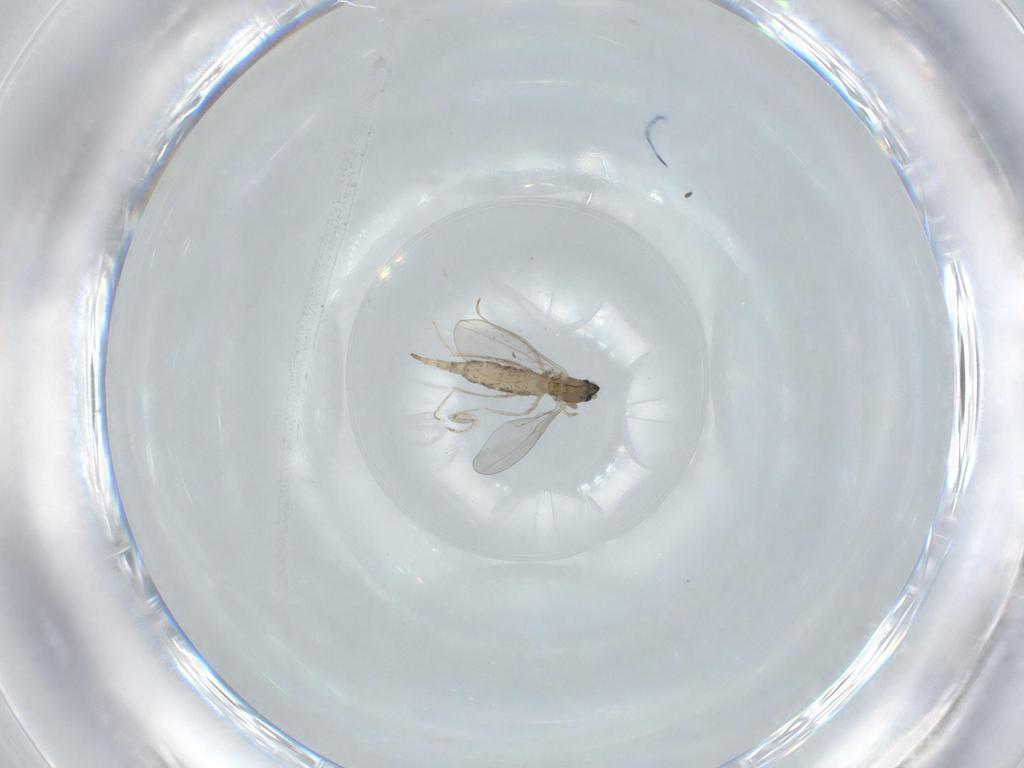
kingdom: Animalia
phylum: Arthropoda
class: Insecta
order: Diptera
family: Cecidomyiidae
